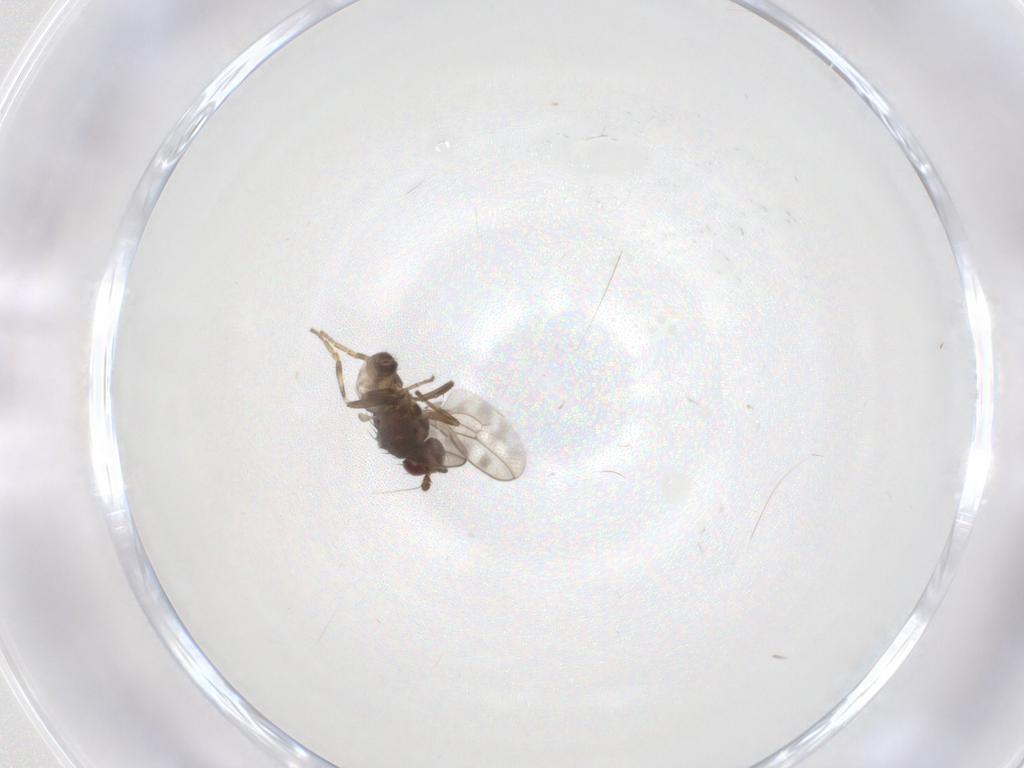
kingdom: Animalia
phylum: Arthropoda
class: Insecta
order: Diptera
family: Sphaeroceridae
